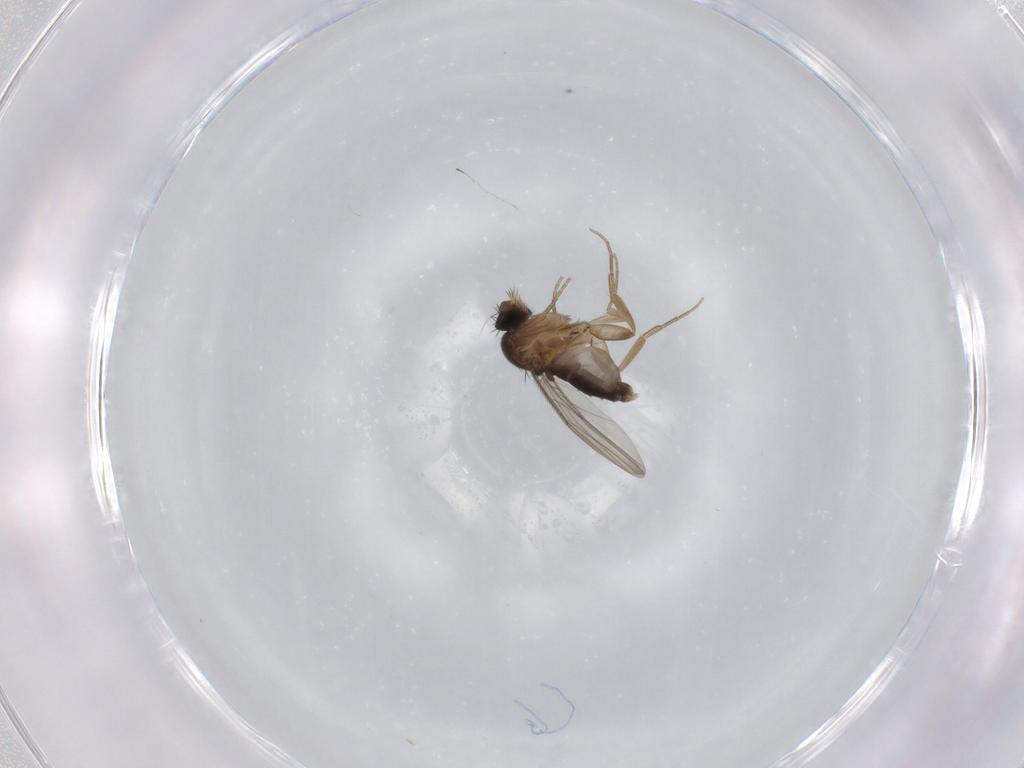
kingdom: Animalia
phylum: Arthropoda
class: Insecta
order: Diptera
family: Phoridae
